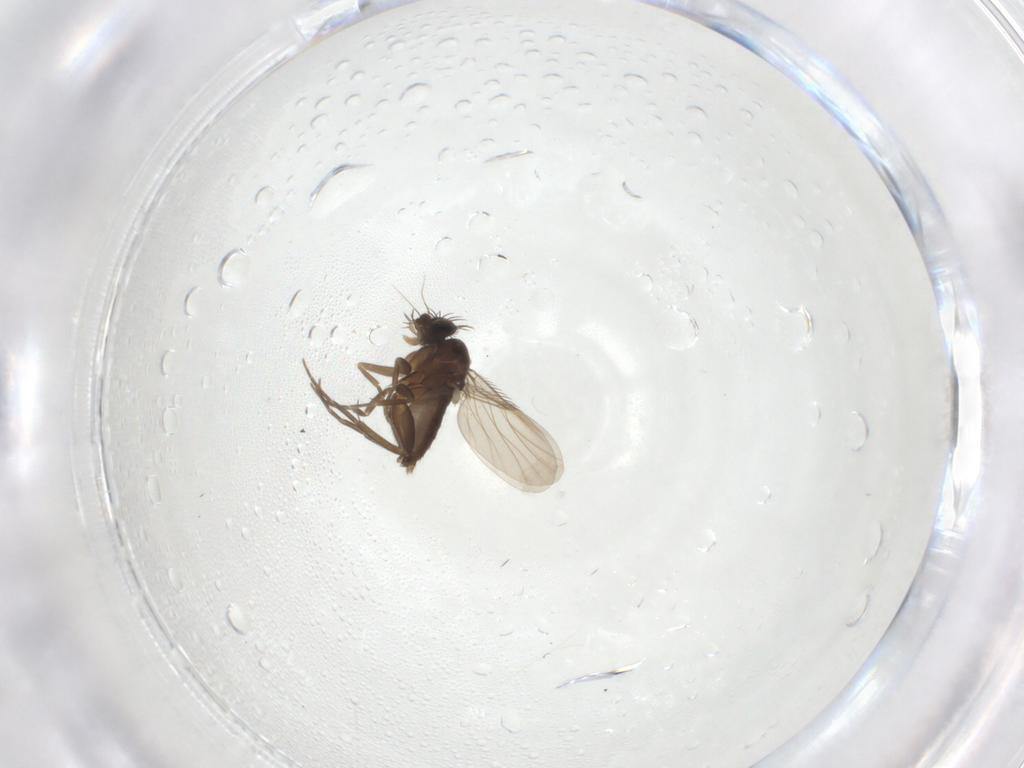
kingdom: Animalia
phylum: Arthropoda
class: Insecta
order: Diptera
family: Phoridae
